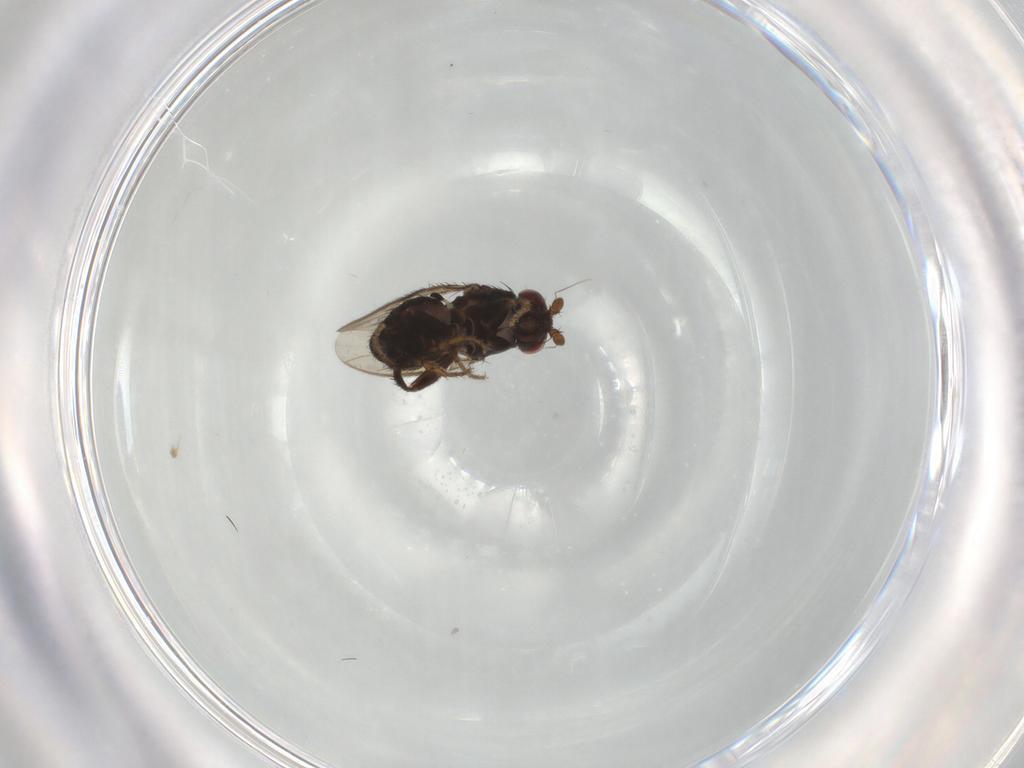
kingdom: Animalia
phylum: Arthropoda
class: Insecta
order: Diptera
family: Sphaeroceridae
